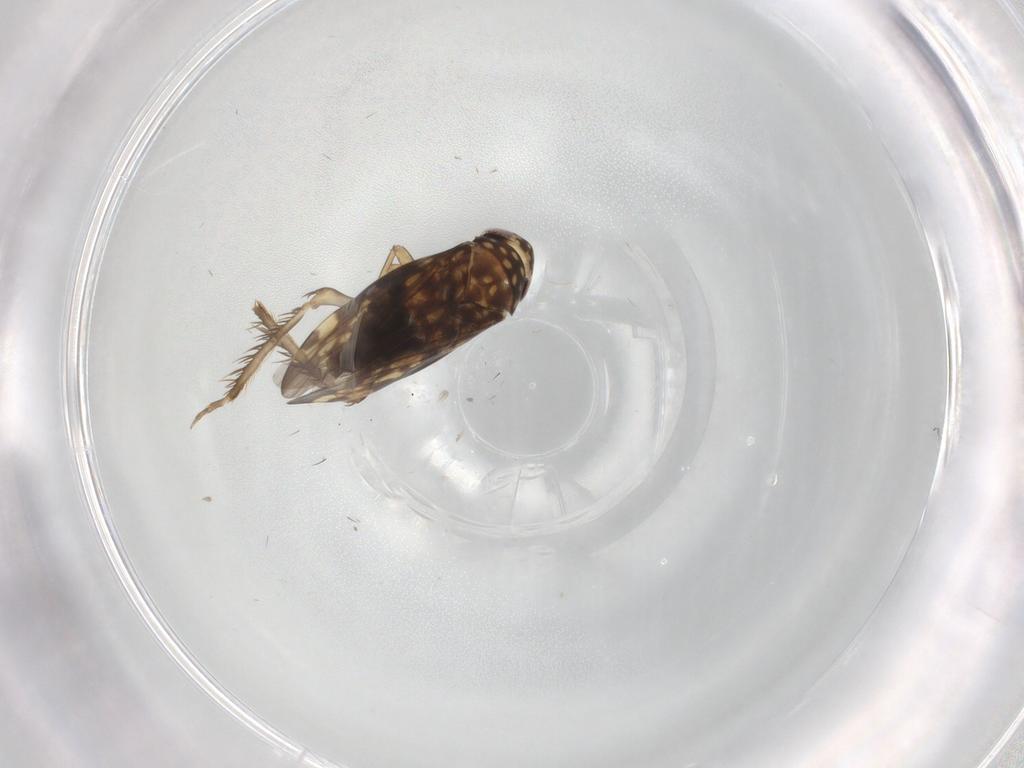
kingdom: Animalia
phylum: Arthropoda
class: Insecta
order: Hemiptera
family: Cicadellidae
